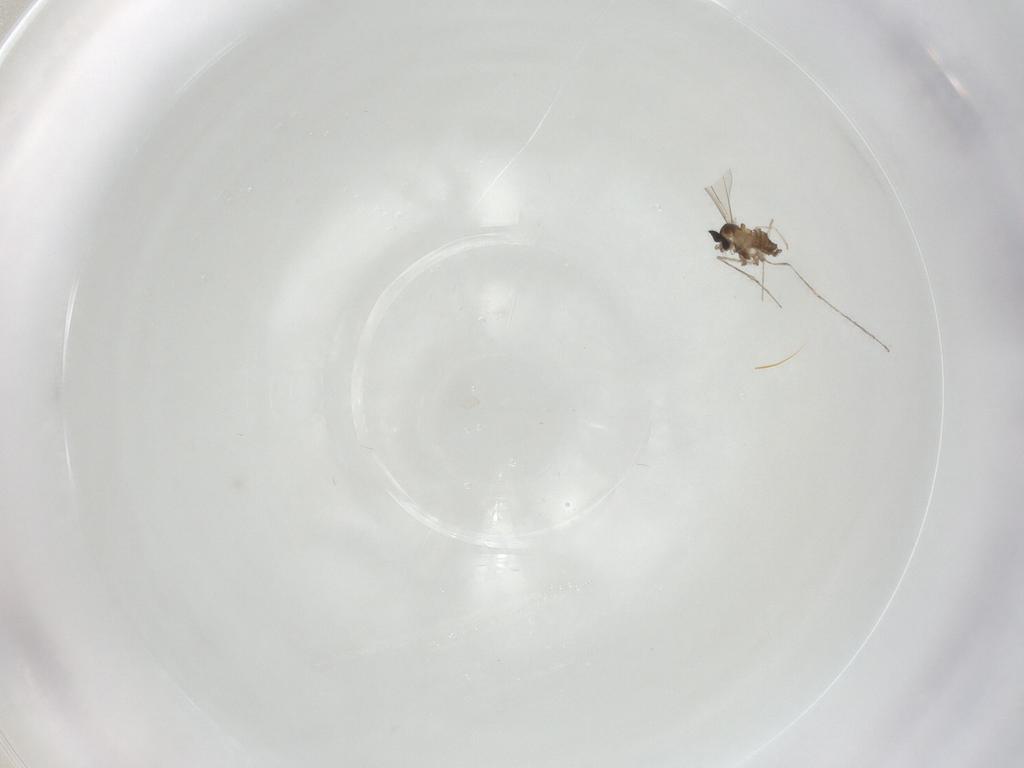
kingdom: Animalia
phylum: Arthropoda
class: Insecta
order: Diptera
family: Cecidomyiidae
